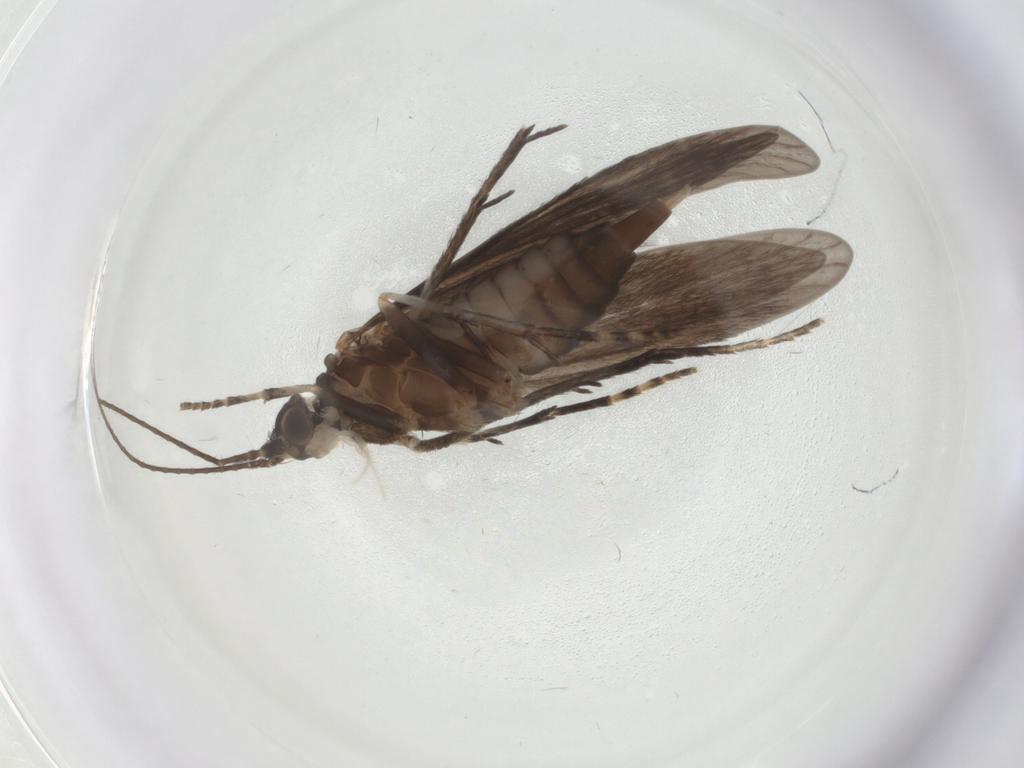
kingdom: Animalia
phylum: Arthropoda
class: Insecta
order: Trichoptera
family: Xiphocentronidae
